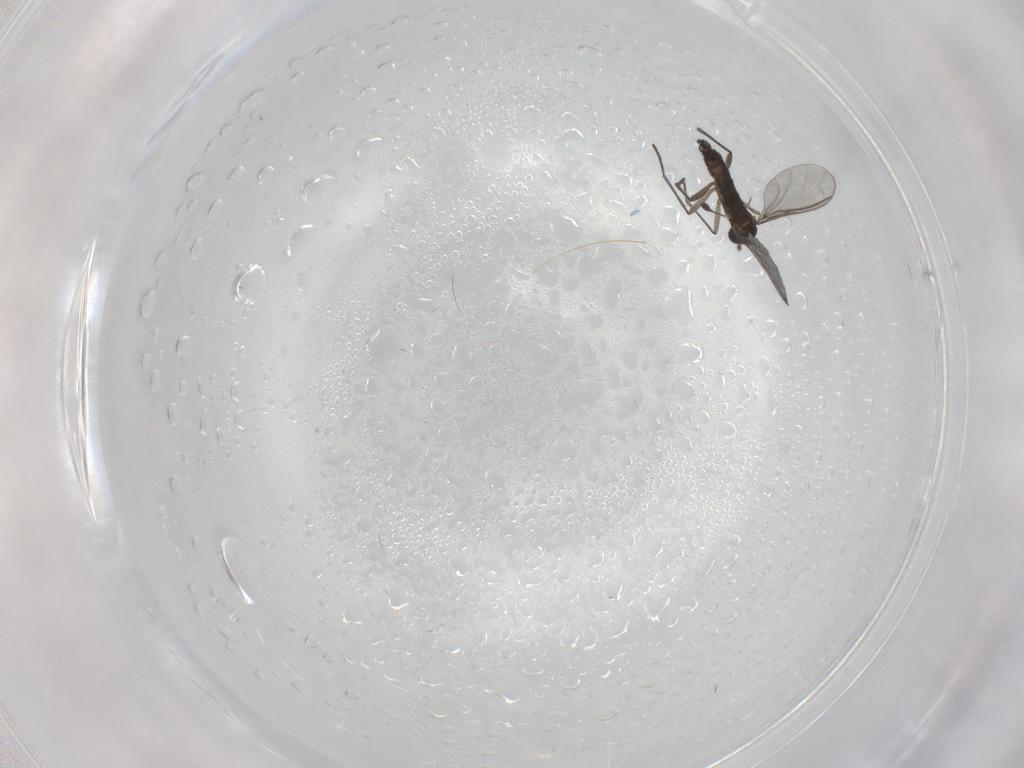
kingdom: Animalia
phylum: Arthropoda
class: Insecta
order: Diptera
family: Sciaridae
